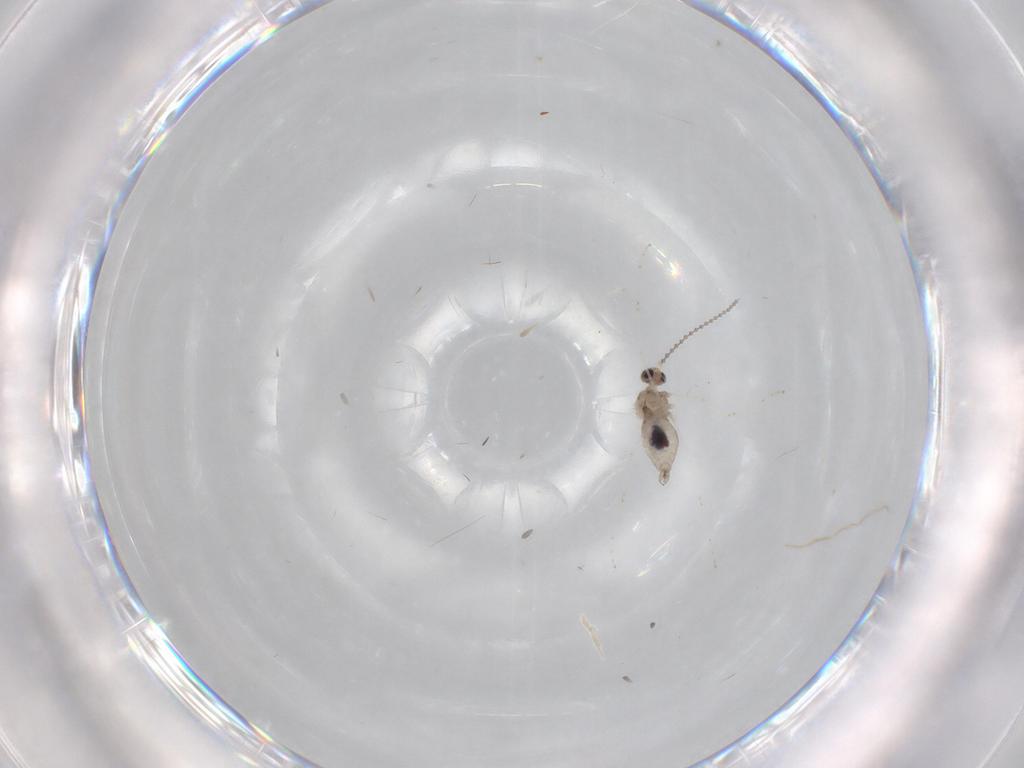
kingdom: Animalia
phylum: Arthropoda
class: Insecta
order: Diptera
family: Cecidomyiidae
